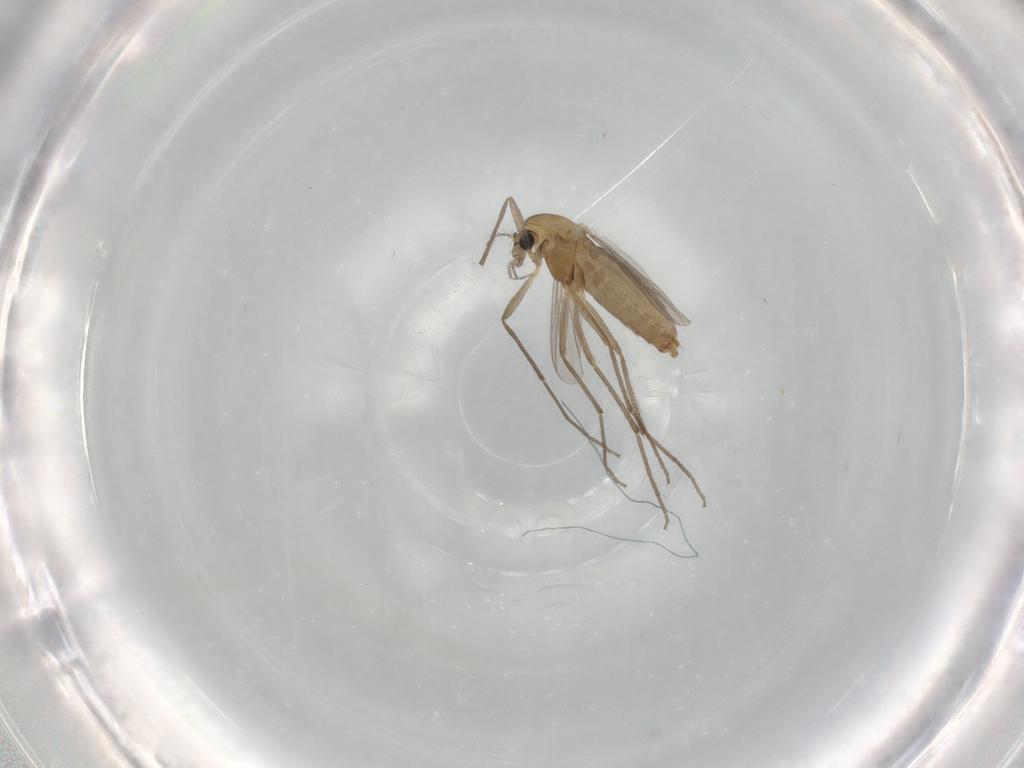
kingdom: Animalia
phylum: Arthropoda
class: Insecta
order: Diptera
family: Chironomidae
